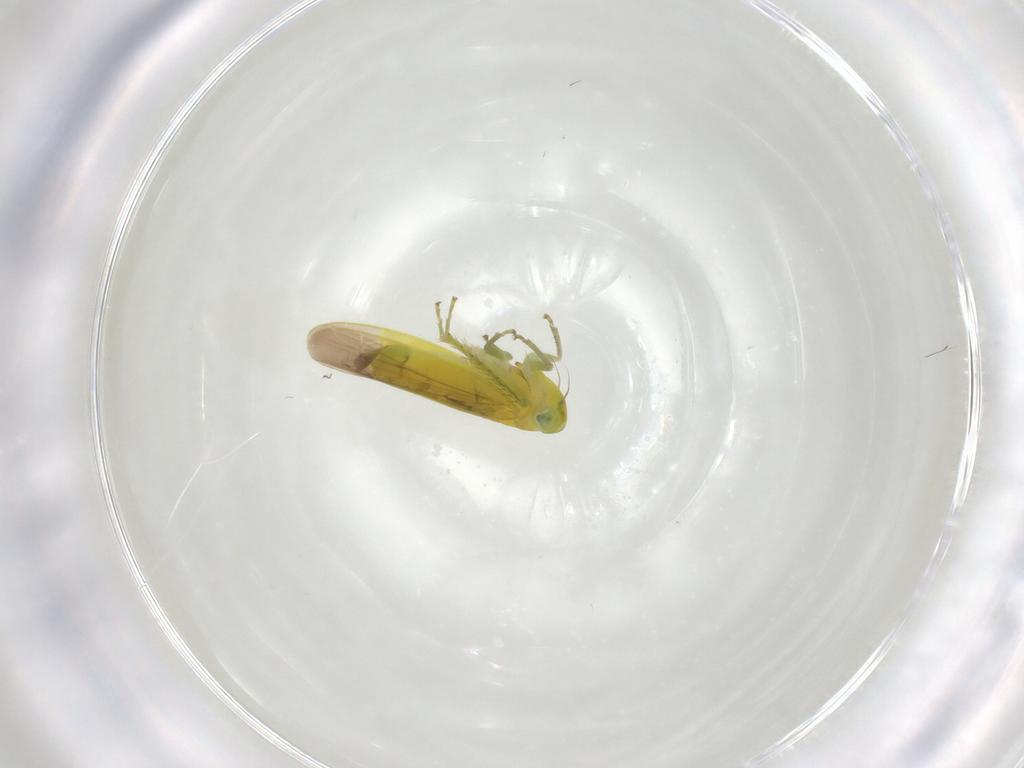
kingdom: Animalia
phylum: Arthropoda
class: Insecta
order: Hemiptera
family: Cicadellidae
